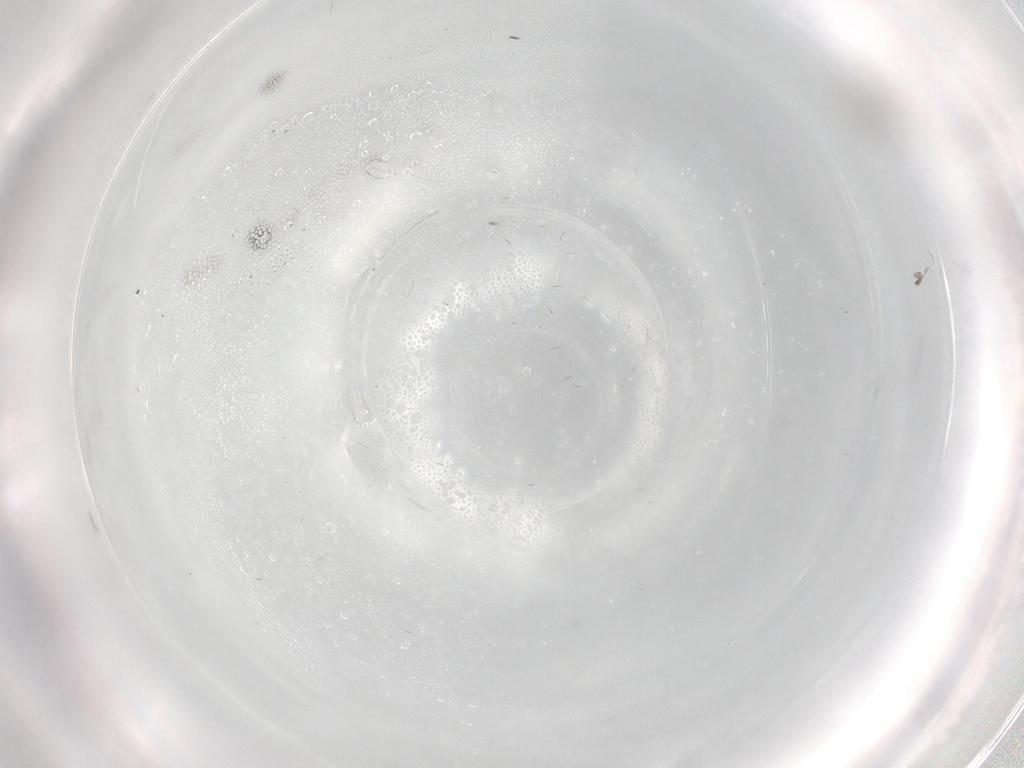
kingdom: Animalia
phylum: Arthropoda
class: Insecta
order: Diptera
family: Cecidomyiidae
